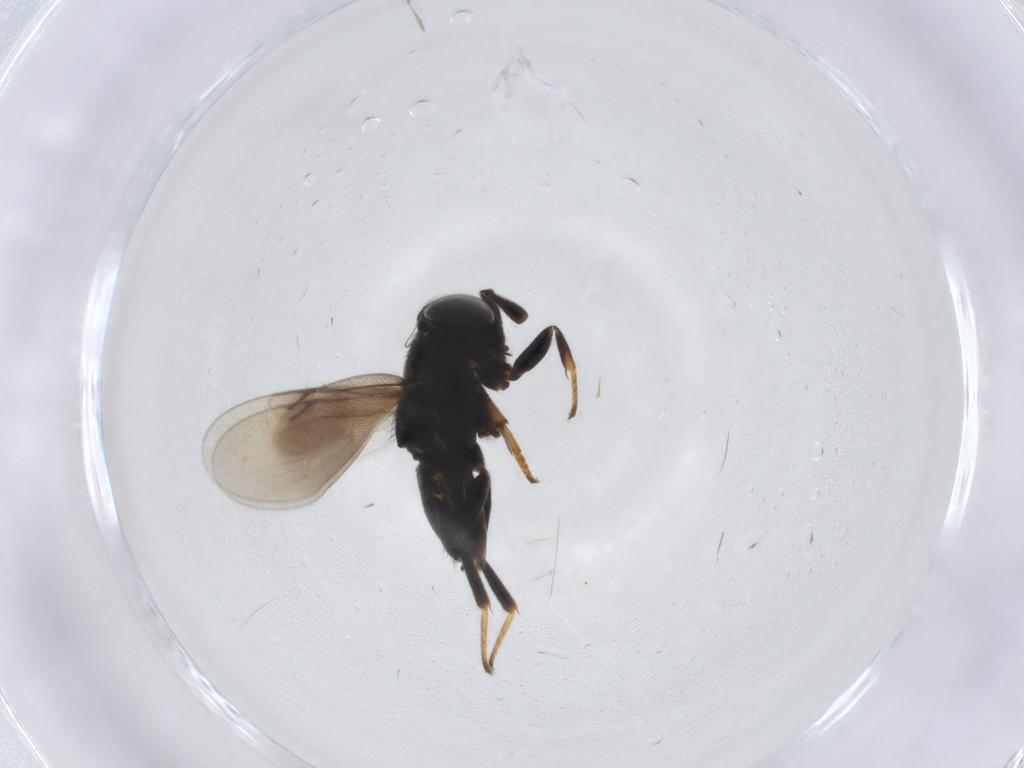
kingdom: Animalia
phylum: Arthropoda
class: Insecta
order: Hymenoptera
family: Encyrtidae
